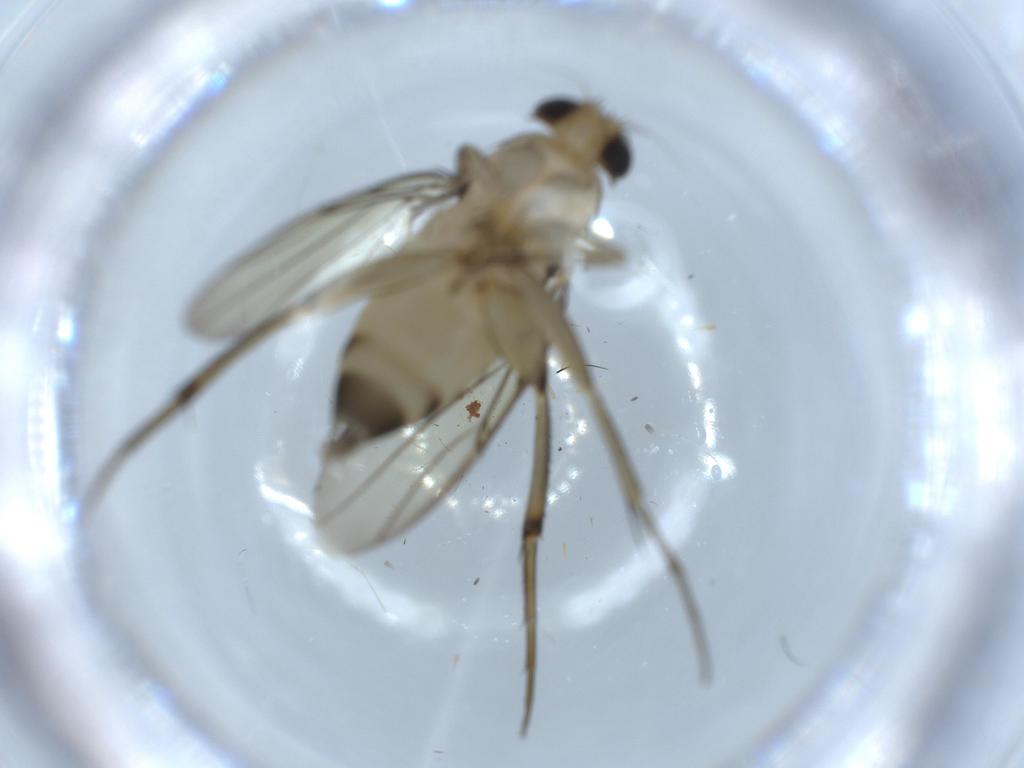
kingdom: Animalia
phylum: Arthropoda
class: Insecta
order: Diptera
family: Phoridae
